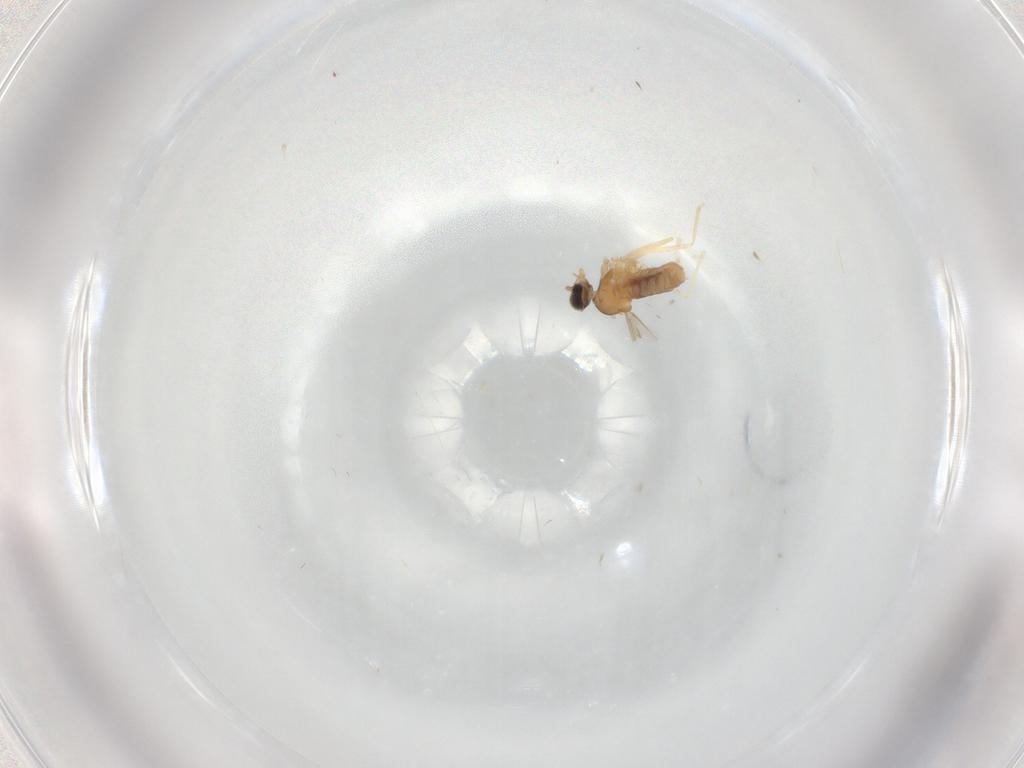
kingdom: Animalia
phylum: Arthropoda
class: Insecta
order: Diptera
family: Cecidomyiidae
